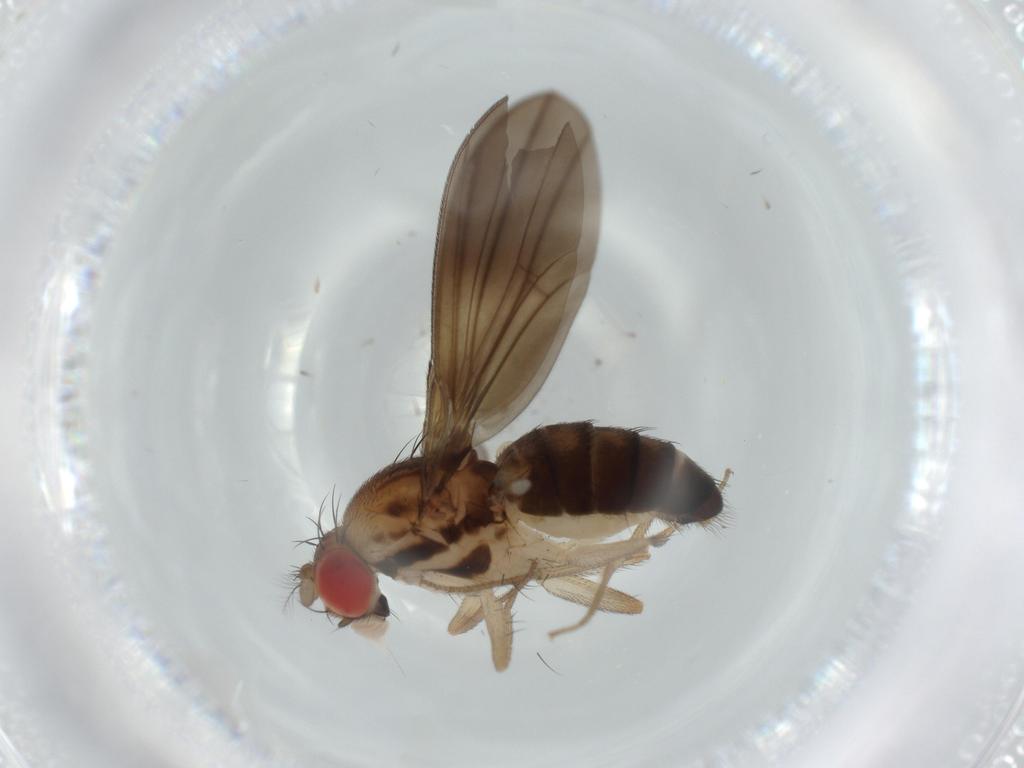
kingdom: Animalia
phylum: Arthropoda
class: Insecta
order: Diptera
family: Drosophilidae
